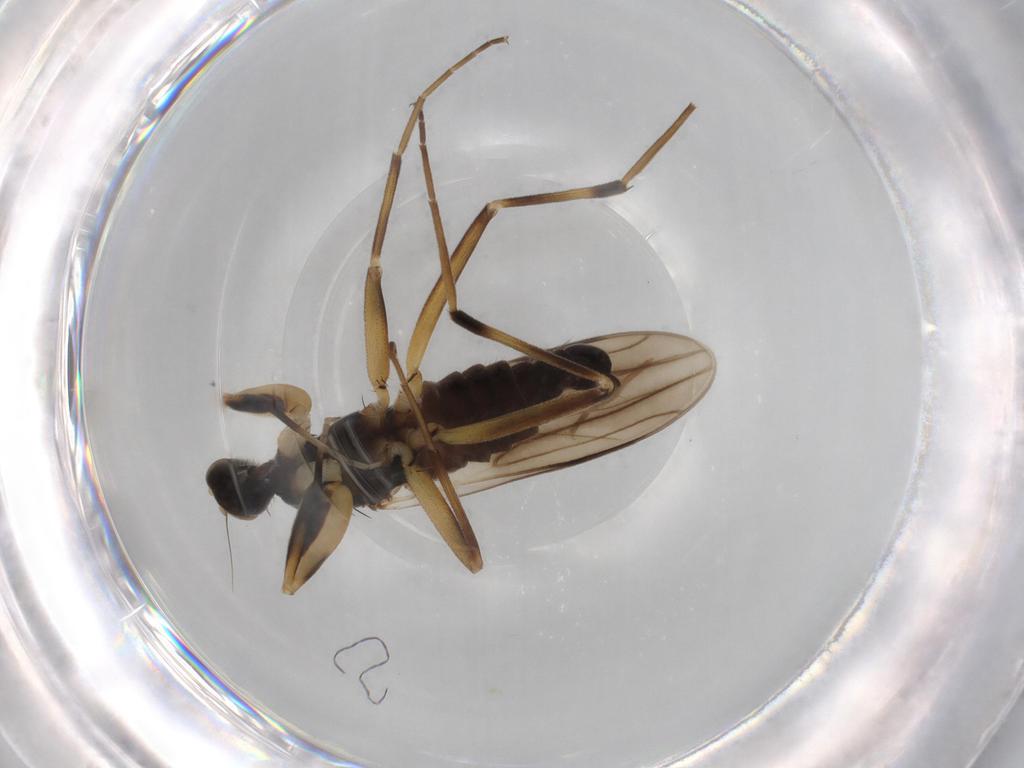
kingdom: Animalia
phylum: Arthropoda
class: Insecta
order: Diptera
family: Chironomidae
